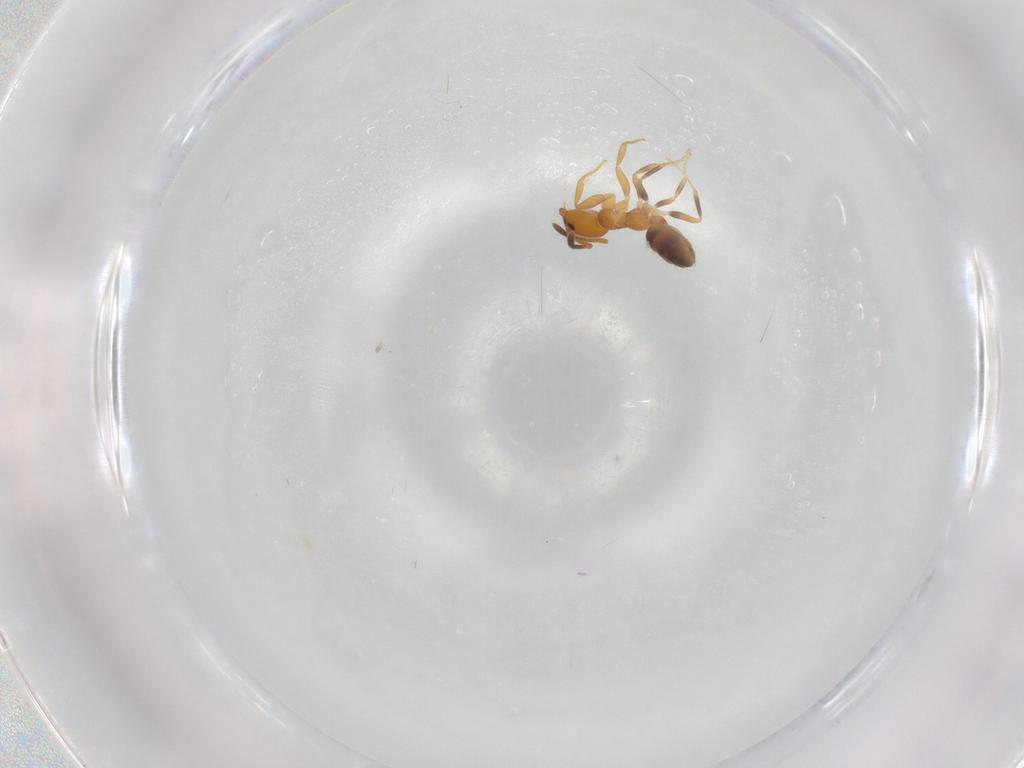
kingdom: Animalia
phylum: Arthropoda
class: Insecta
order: Hymenoptera
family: Formicidae
